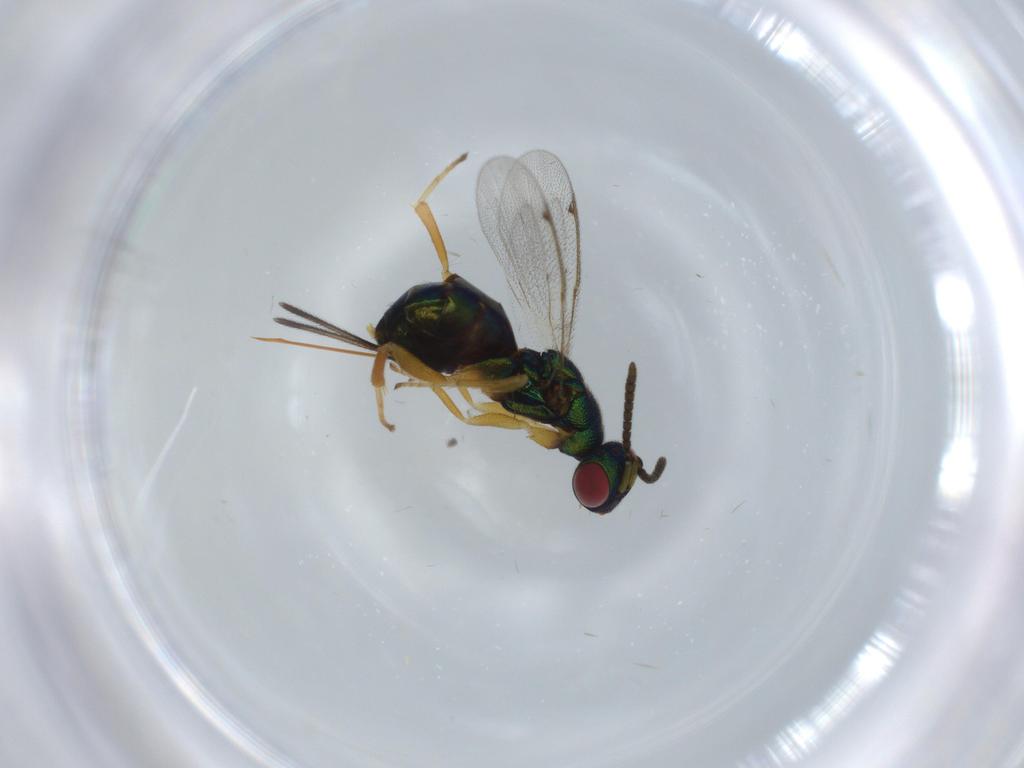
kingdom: Animalia
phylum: Arthropoda
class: Insecta
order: Hymenoptera
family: Torymidae
